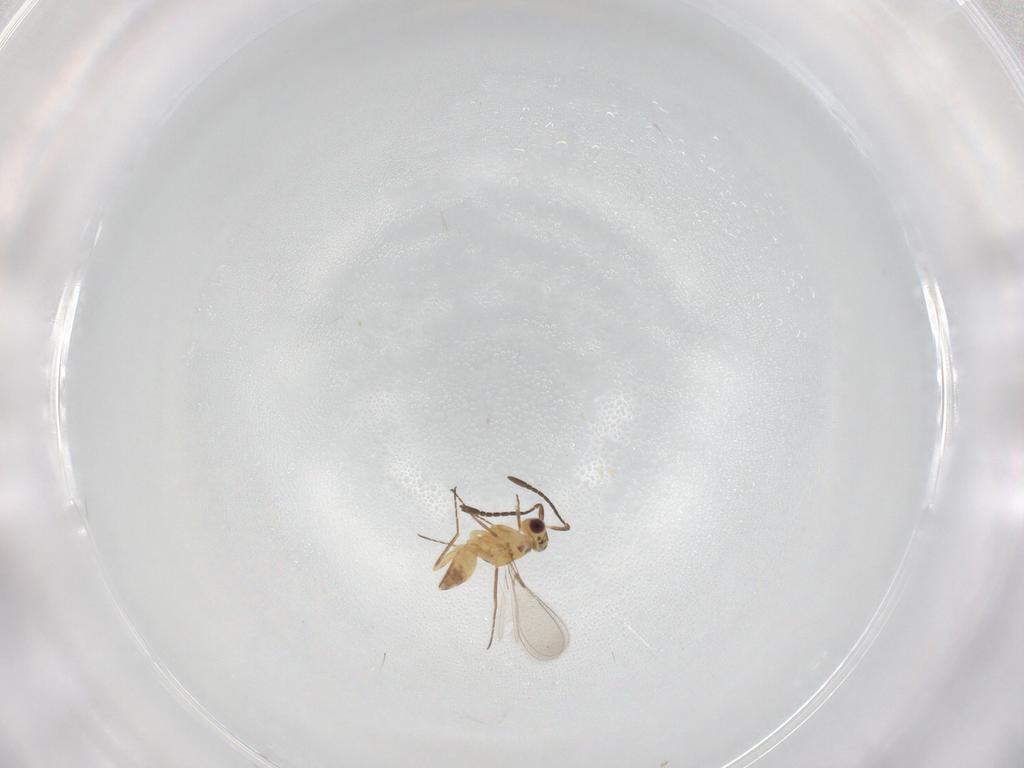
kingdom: Animalia
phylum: Arthropoda
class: Insecta
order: Hymenoptera
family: Mymaridae
